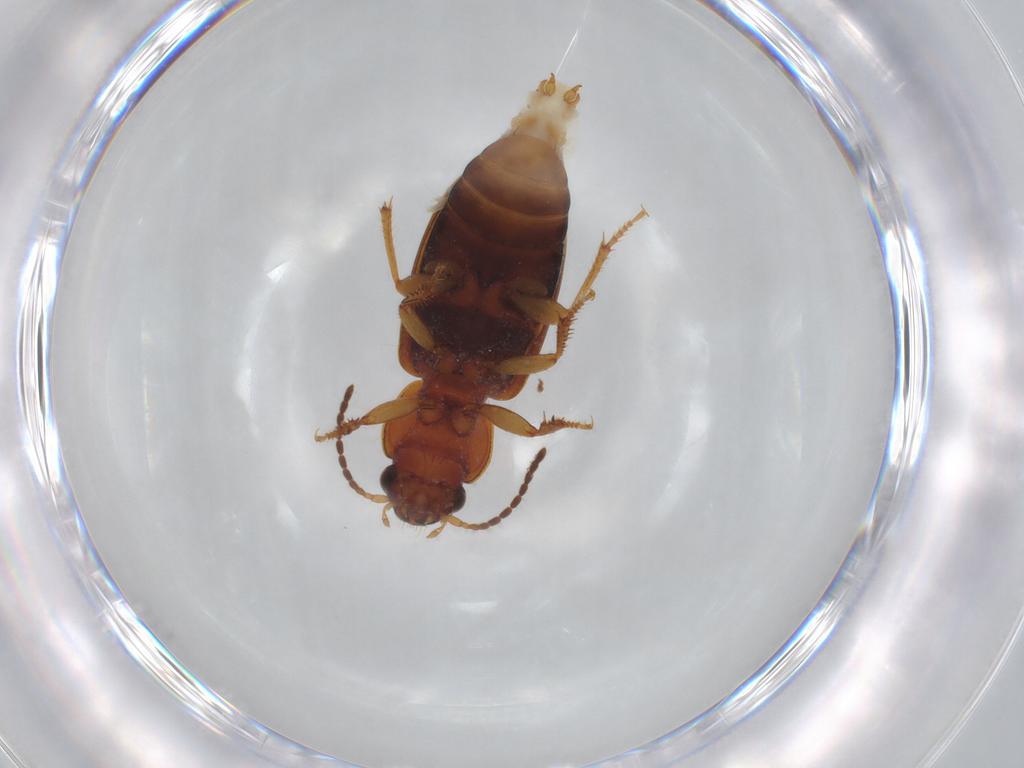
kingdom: Animalia
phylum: Arthropoda
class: Insecta
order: Coleoptera
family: Carabidae
